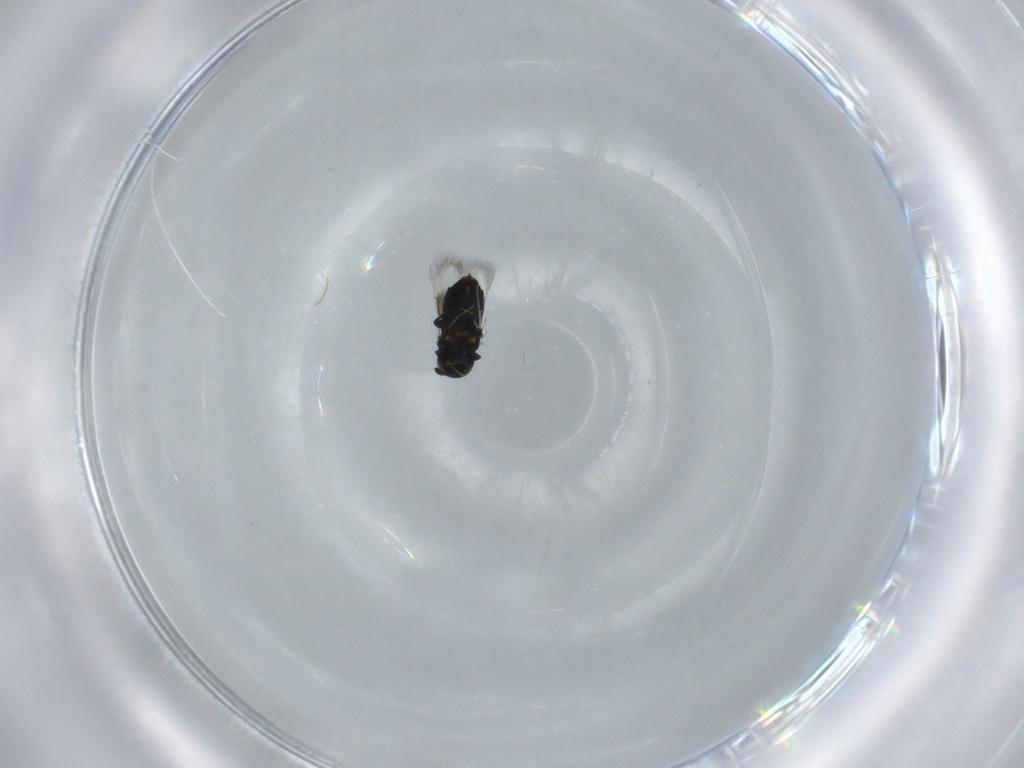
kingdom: Animalia
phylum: Arthropoda
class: Insecta
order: Hymenoptera
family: Signiphoridae
